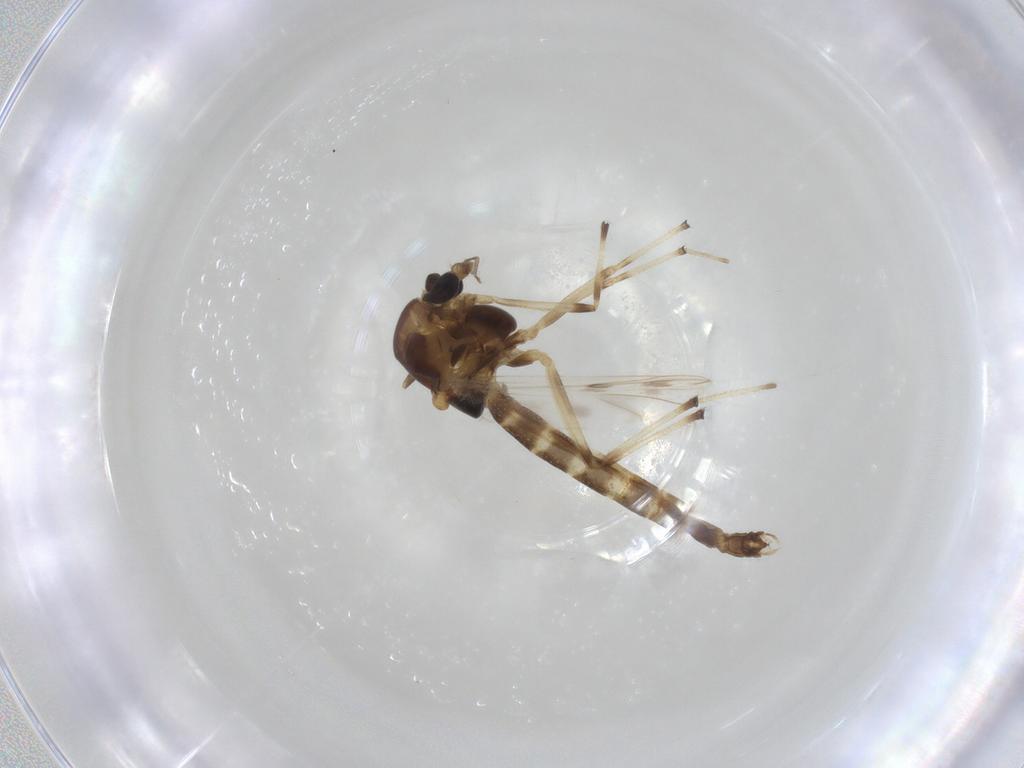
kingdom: Animalia
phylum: Arthropoda
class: Insecta
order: Diptera
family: Chironomidae
